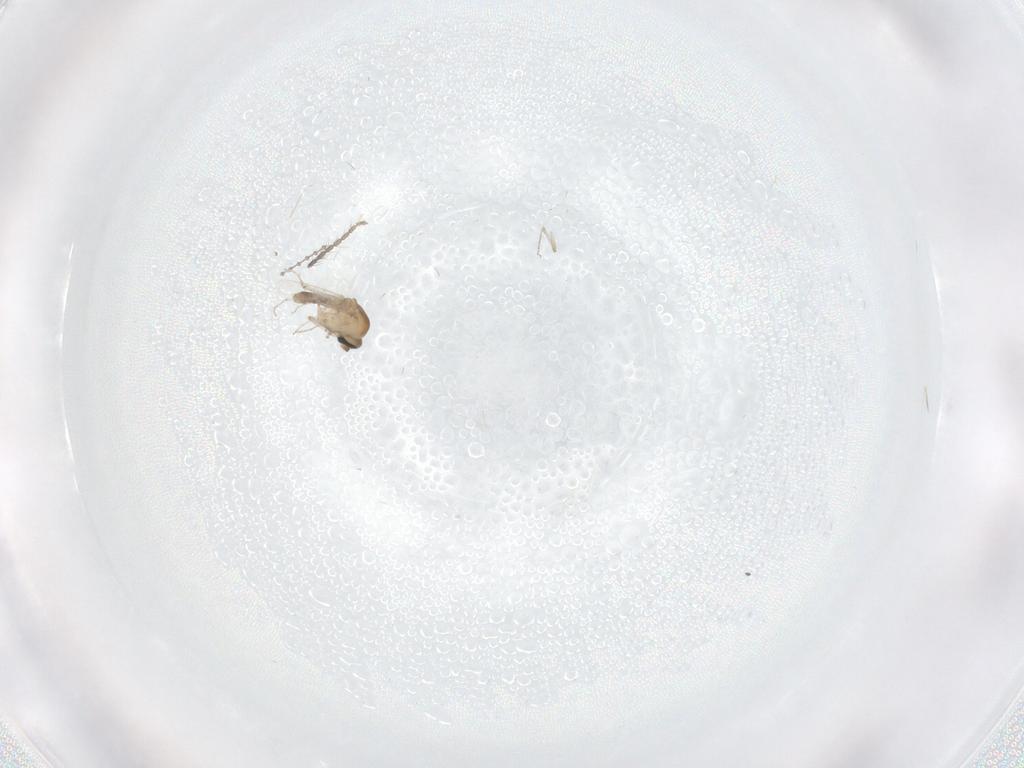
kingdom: Animalia
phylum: Arthropoda
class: Insecta
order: Diptera
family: Ceratopogonidae
